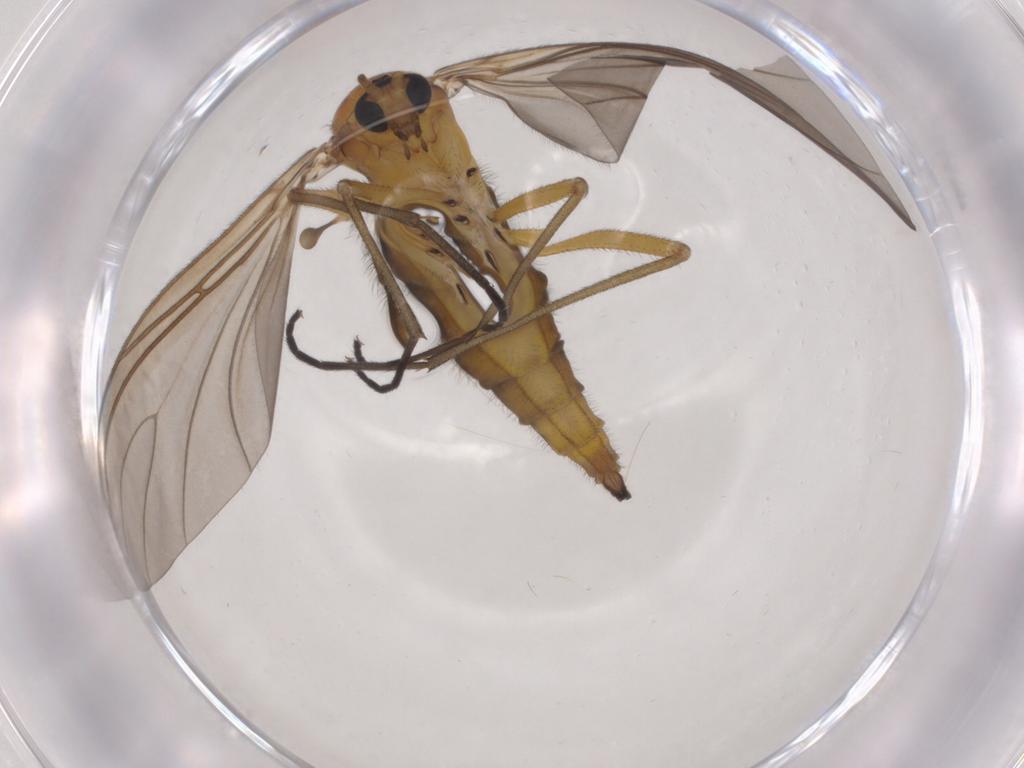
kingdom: Animalia
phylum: Arthropoda
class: Insecta
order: Diptera
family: Sciaridae
